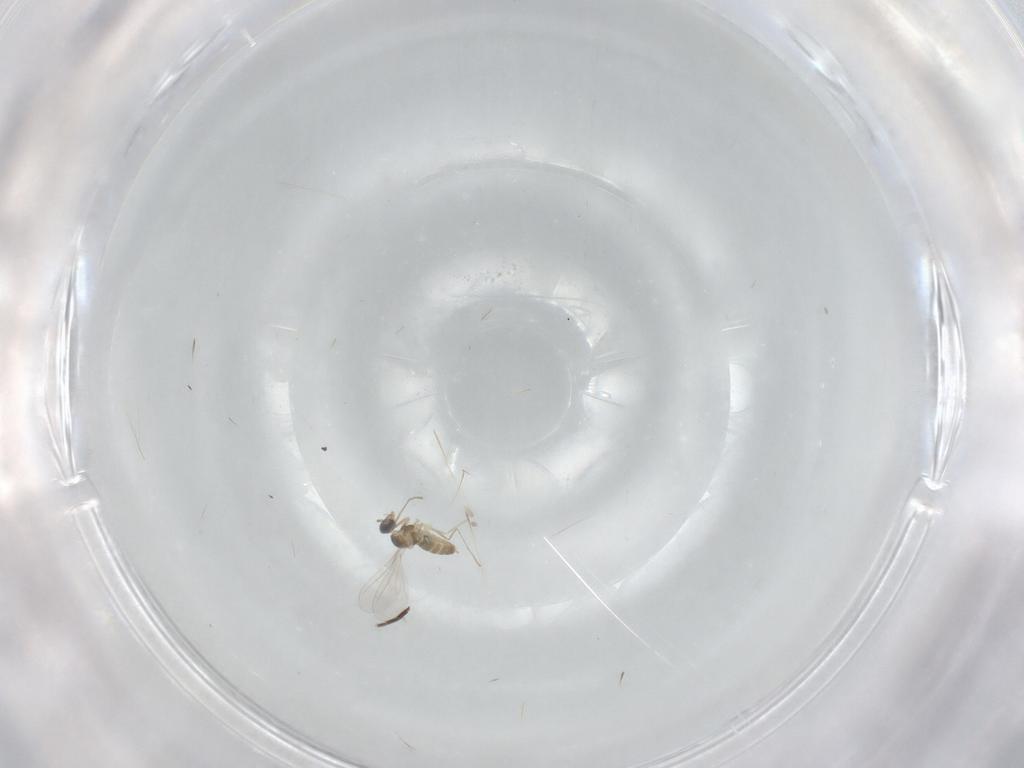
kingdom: Animalia
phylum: Arthropoda
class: Insecta
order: Diptera
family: Cecidomyiidae
